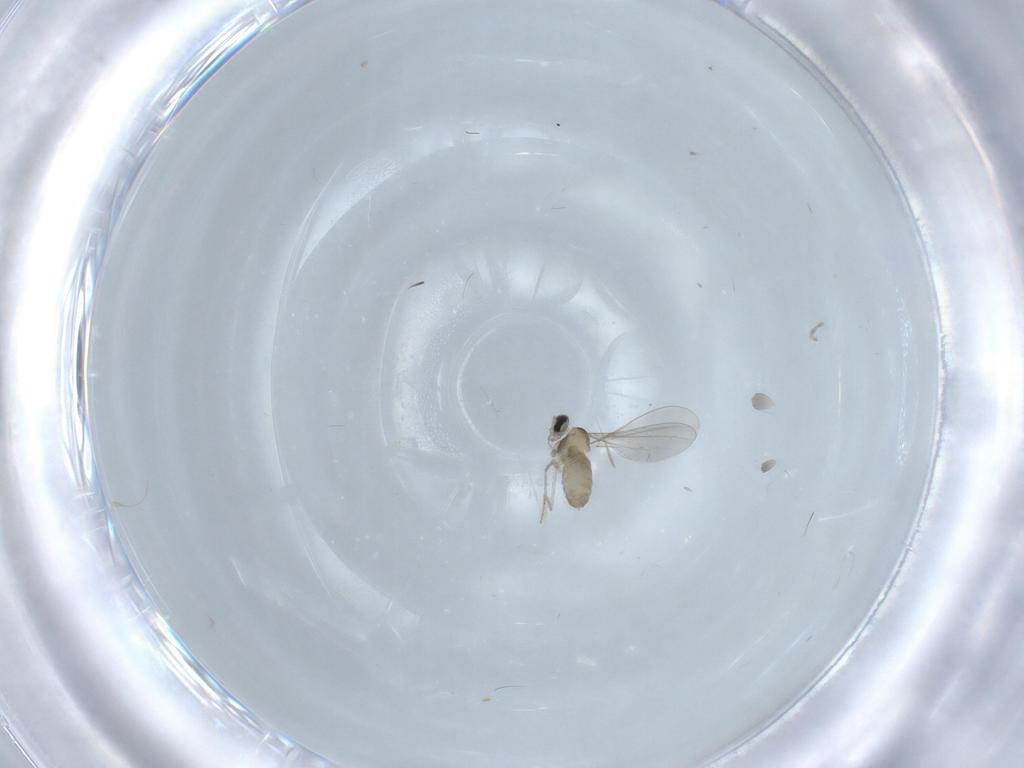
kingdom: Animalia
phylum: Arthropoda
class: Insecta
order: Diptera
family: Cecidomyiidae
